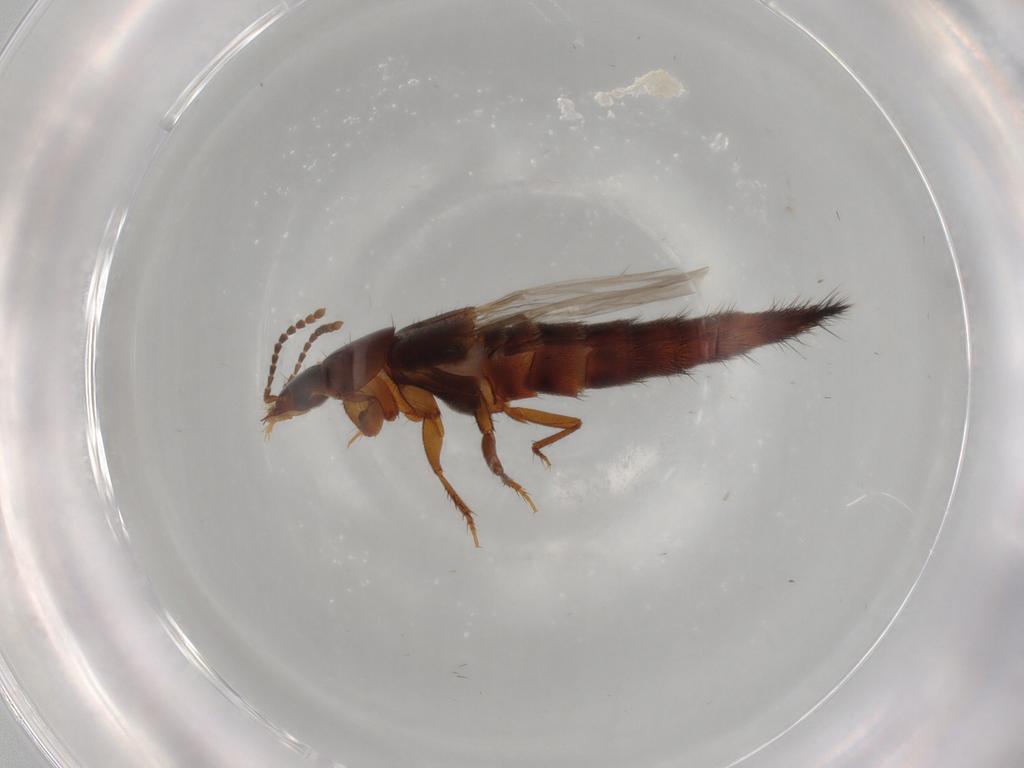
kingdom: Animalia
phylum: Arthropoda
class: Insecta
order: Coleoptera
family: Staphylinidae
